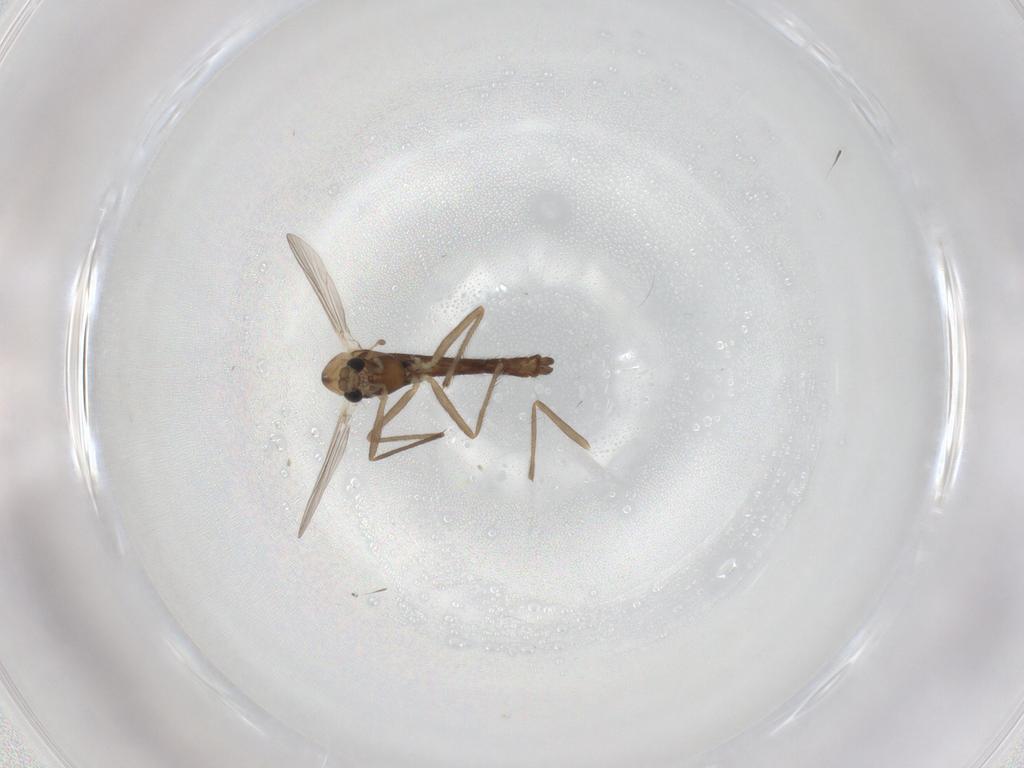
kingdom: Animalia
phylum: Arthropoda
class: Insecta
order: Diptera
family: Chironomidae
